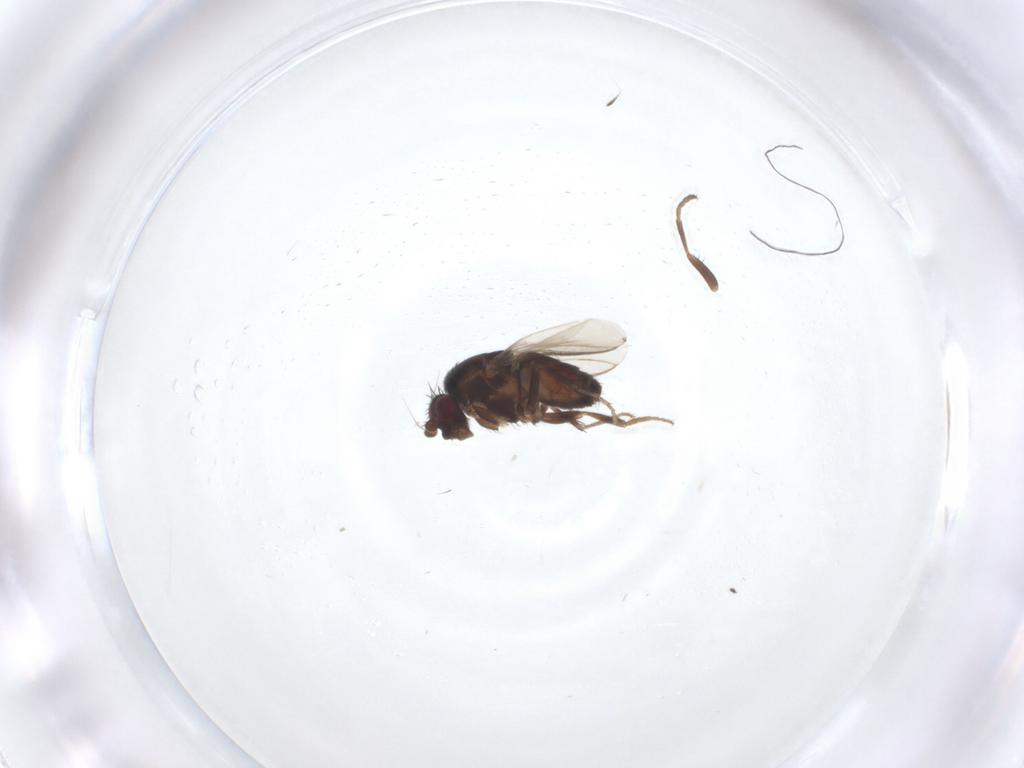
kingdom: Animalia
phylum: Arthropoda
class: Insecta
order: Diptera
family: Sphaeroceridae
